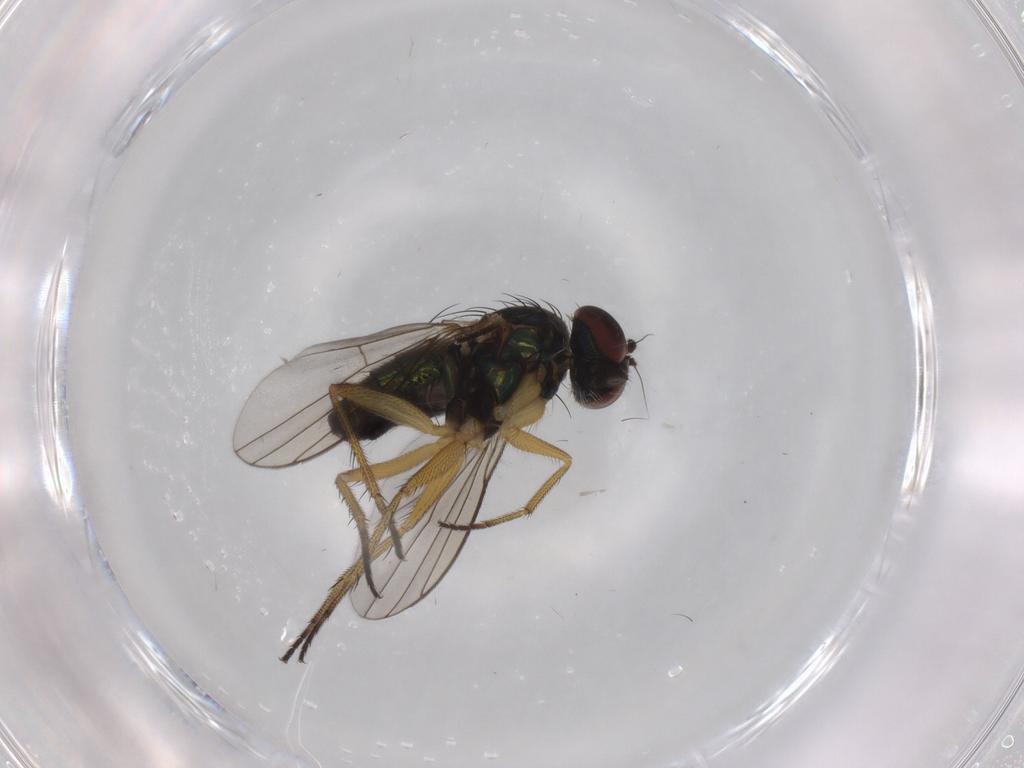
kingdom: Animalia
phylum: Arthropoda
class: Insecta
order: Diptera
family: Dolichopodidae
